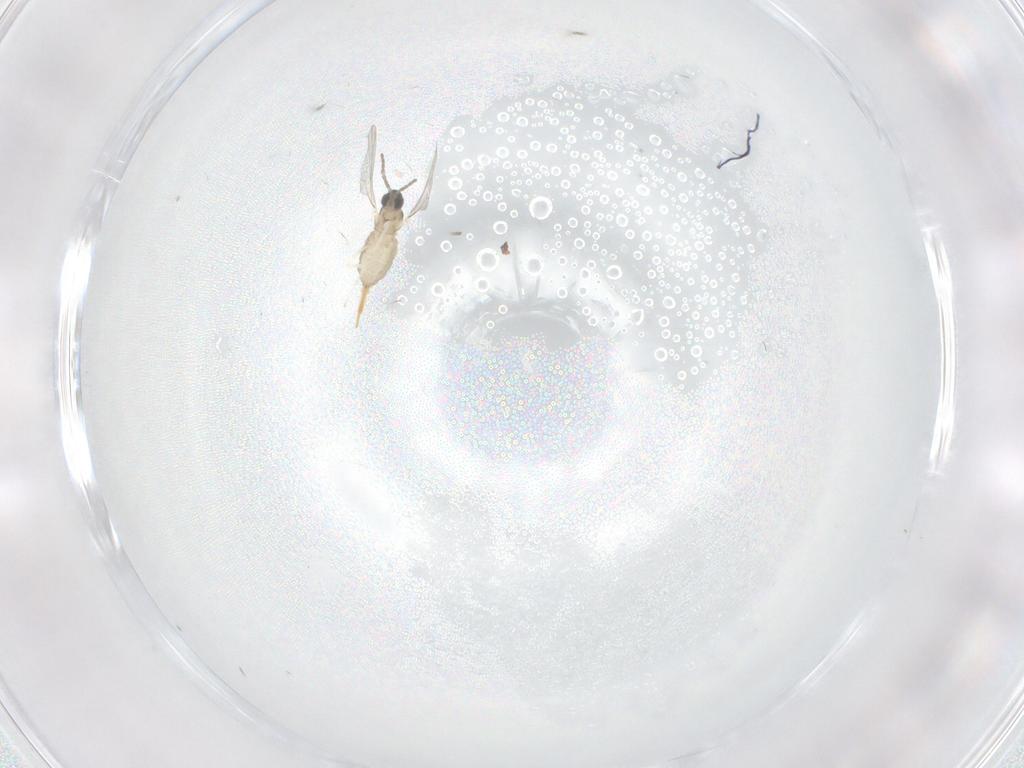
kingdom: Animalia
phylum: Arthropoda
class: Insecta
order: Diptera
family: Cecidomyiidae
